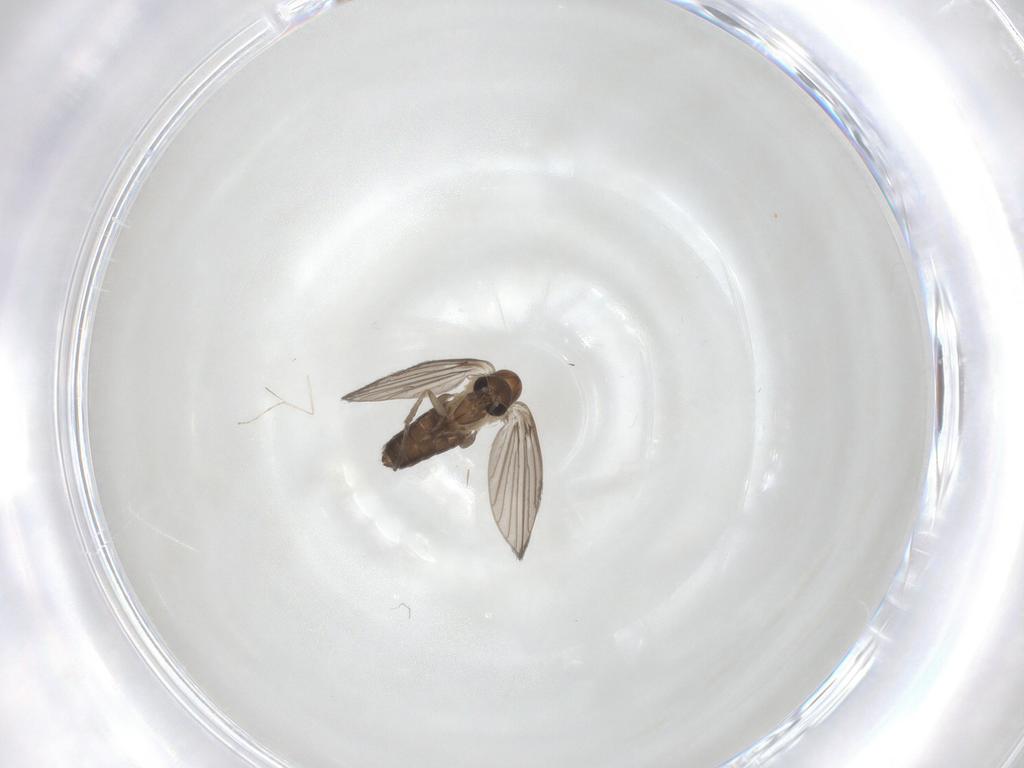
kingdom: Animalia
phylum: Arthropoda
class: Insecta
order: Diptera
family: Psychodidae
